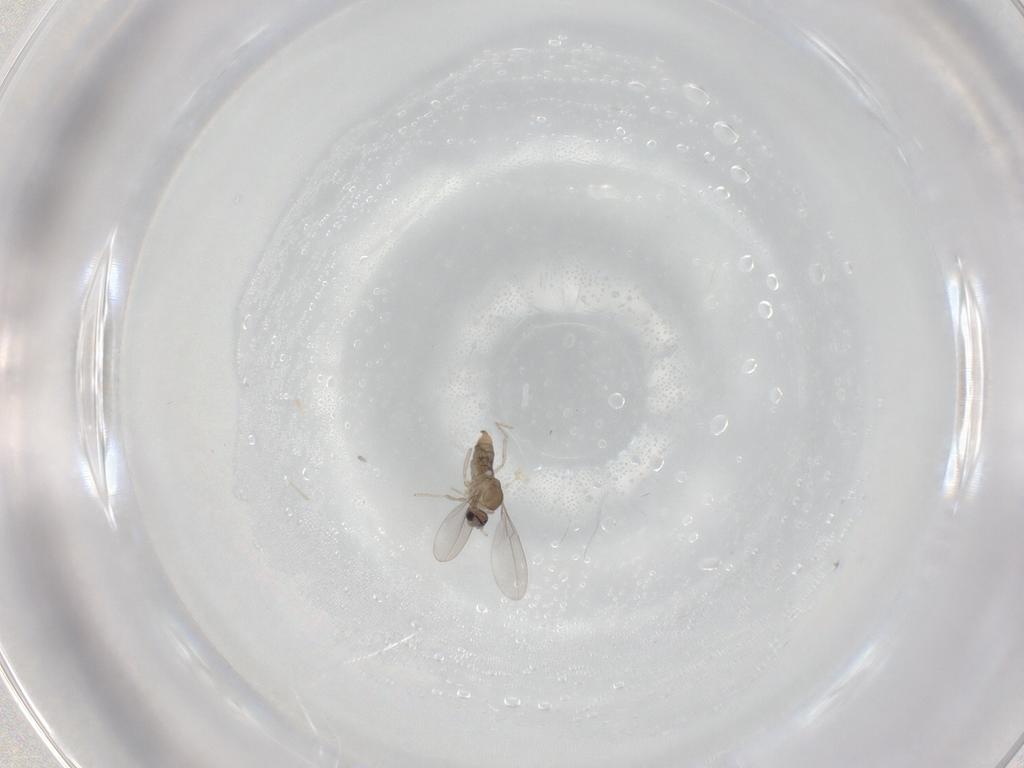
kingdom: Animalia
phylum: Arthropoda
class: Insecta
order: Diptera
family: Cecidomyiidae
